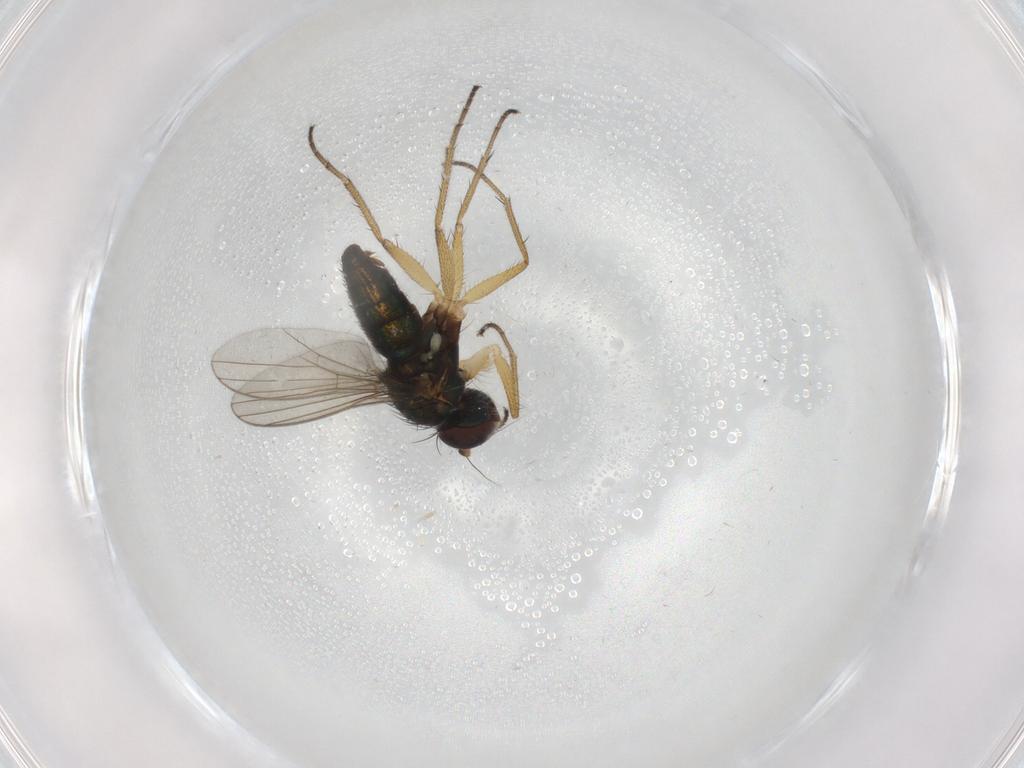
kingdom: Animalia
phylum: Arthropoda
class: Insecta
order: Diptera
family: Dolichopodidae
